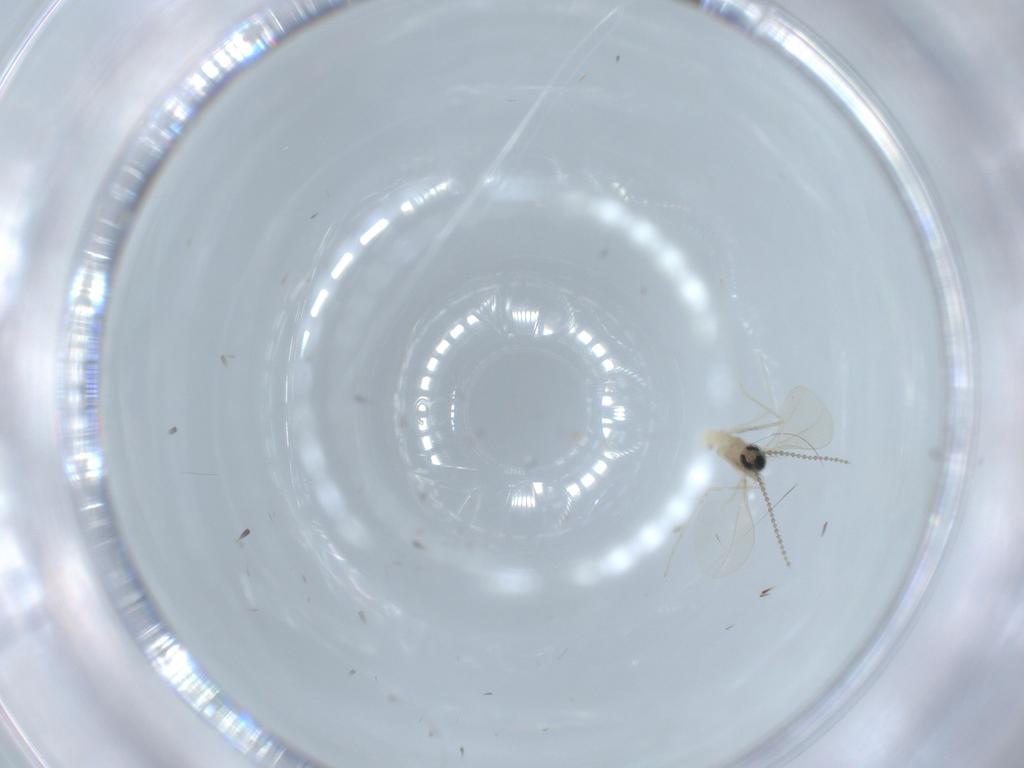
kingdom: Animalia
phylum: Arthropoda
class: Insecta
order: Diptera
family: Cecidomyiidae
